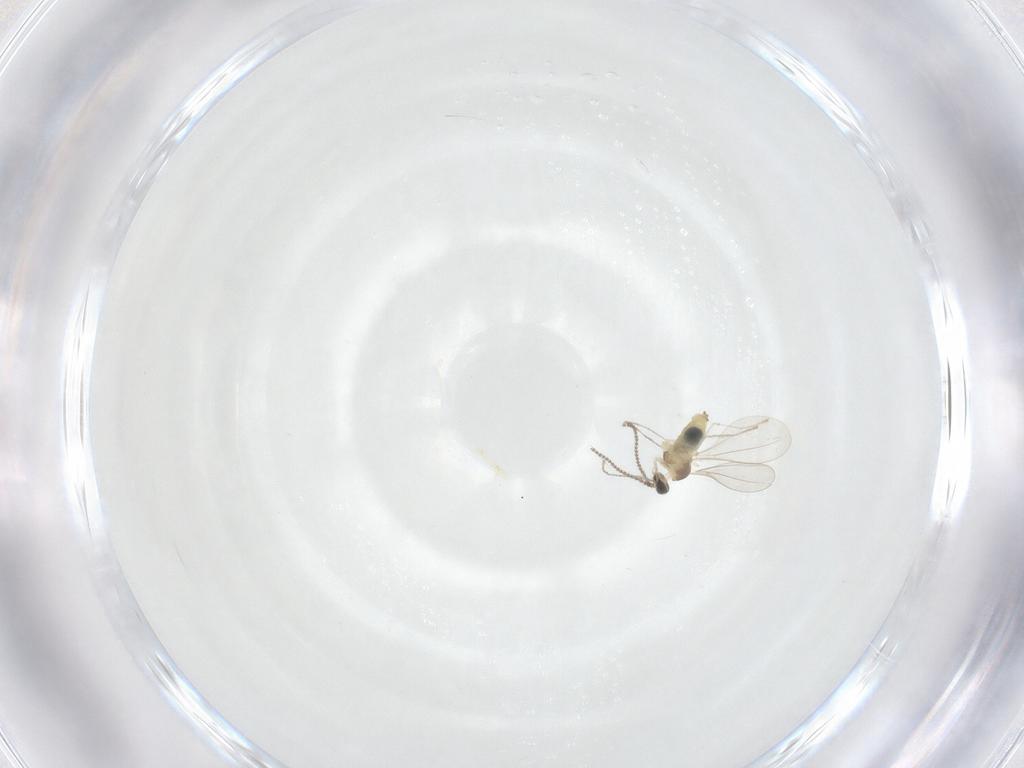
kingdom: Animalia
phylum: Arthropoda
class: Insecta
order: Diptera
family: Cecidomyiidae
